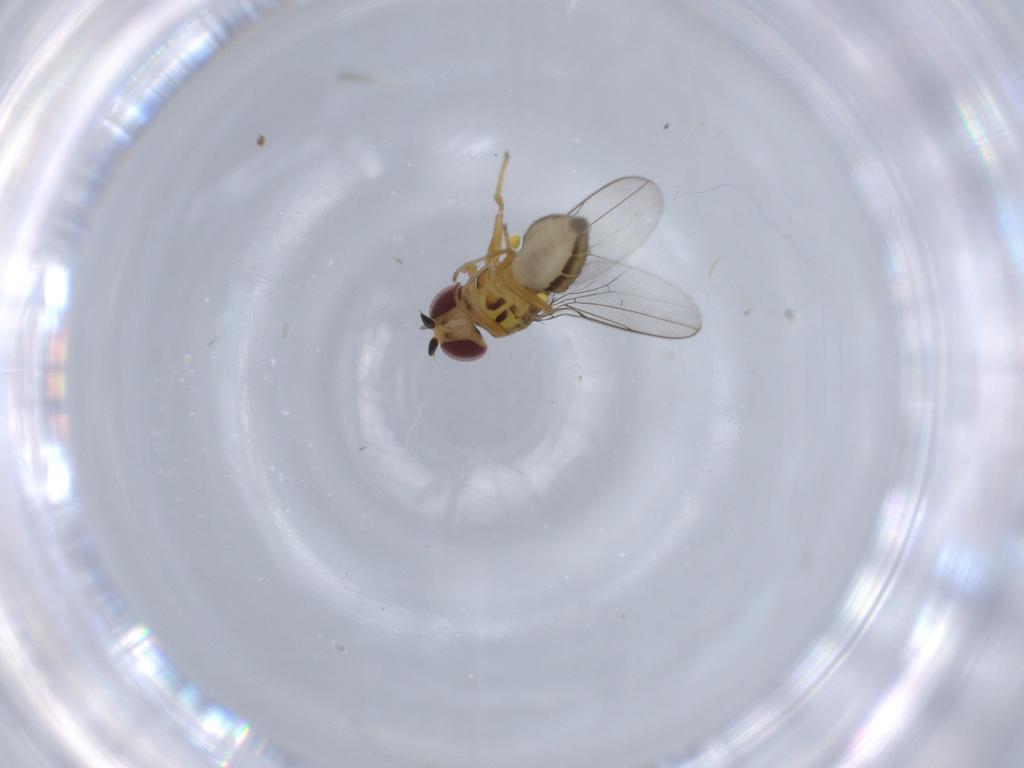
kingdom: Animalia
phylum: Arthropoda
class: Insecta
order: Diptera
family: Chloropidae
